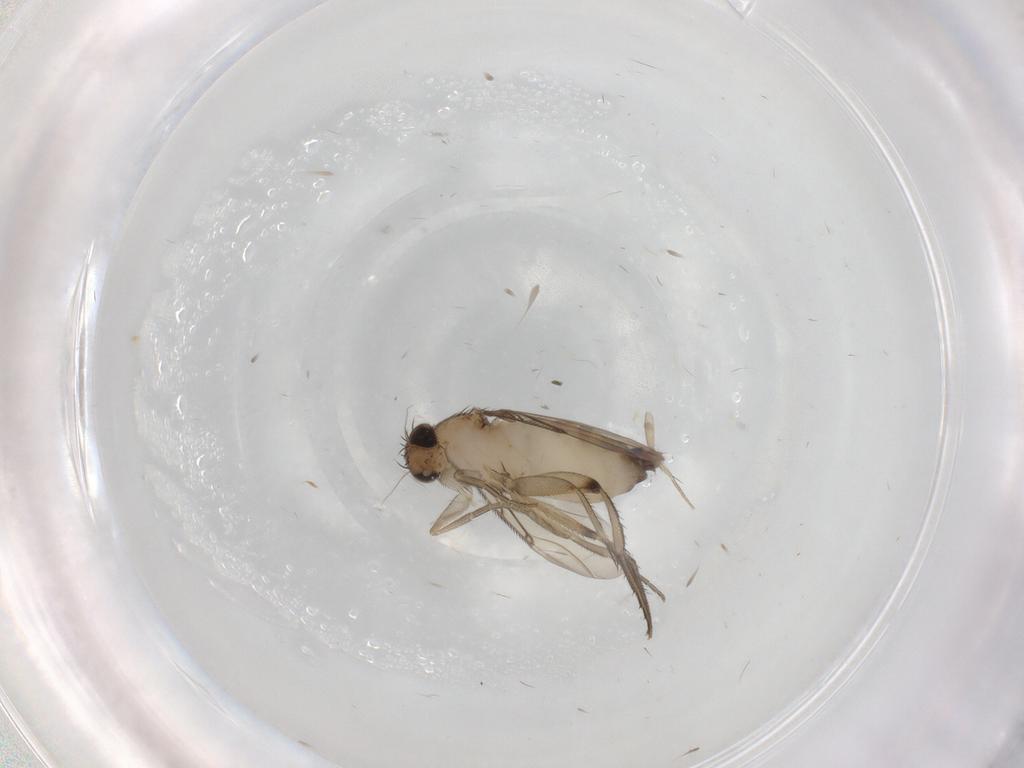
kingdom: Animalia
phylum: Arthropoda
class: Insecta
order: Diptera
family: Phoridae
